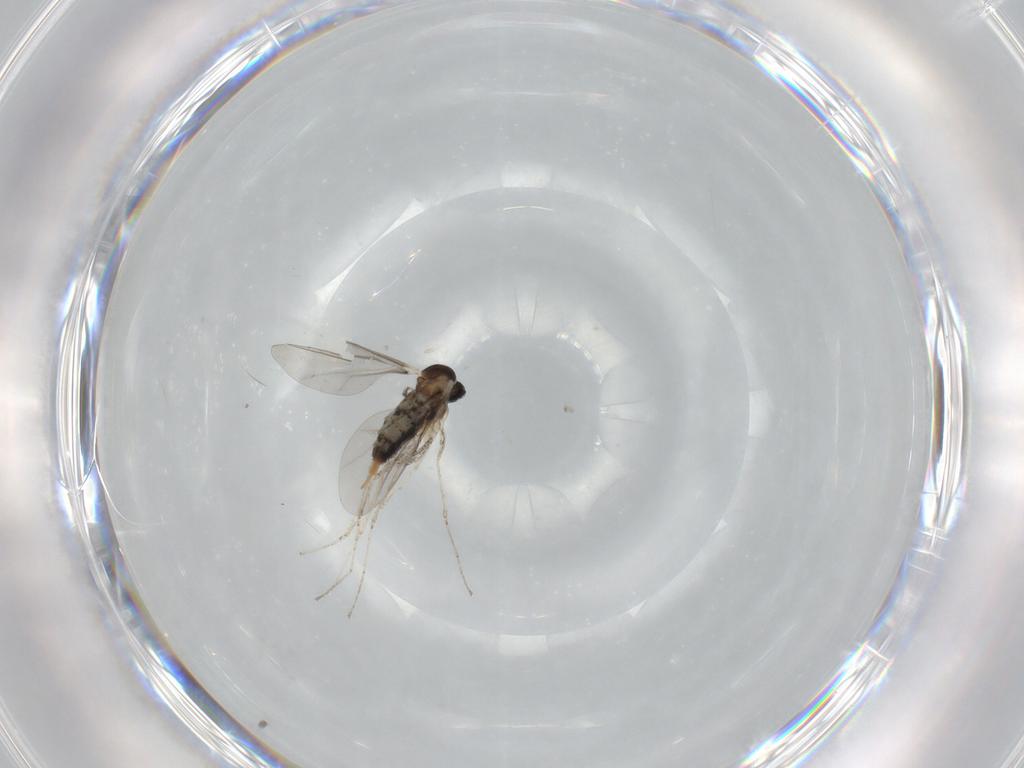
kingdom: Animalia
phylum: Arthropoda
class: Insecta
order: Diptera
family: Cecidomyiidae
